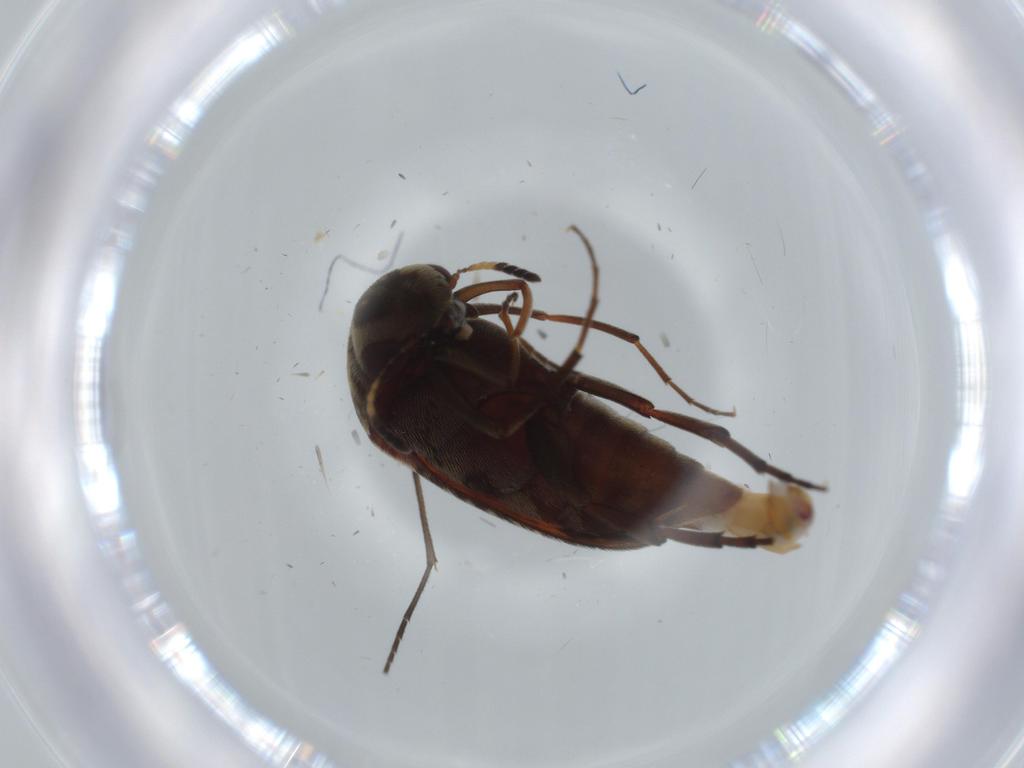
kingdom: Animalia
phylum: Arthropoda
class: Insecta
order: Coleoptera
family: Lampyridae
